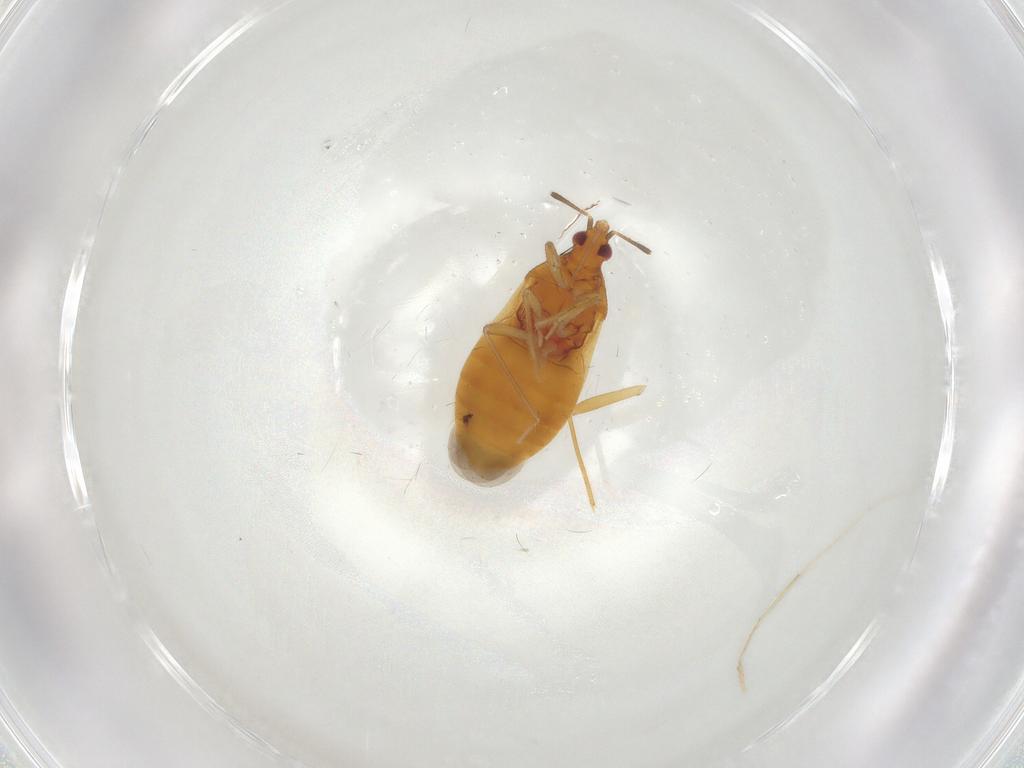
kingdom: Animalia
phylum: Arthropoda
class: Insecta
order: Hemiptera
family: Lasiochilidae
